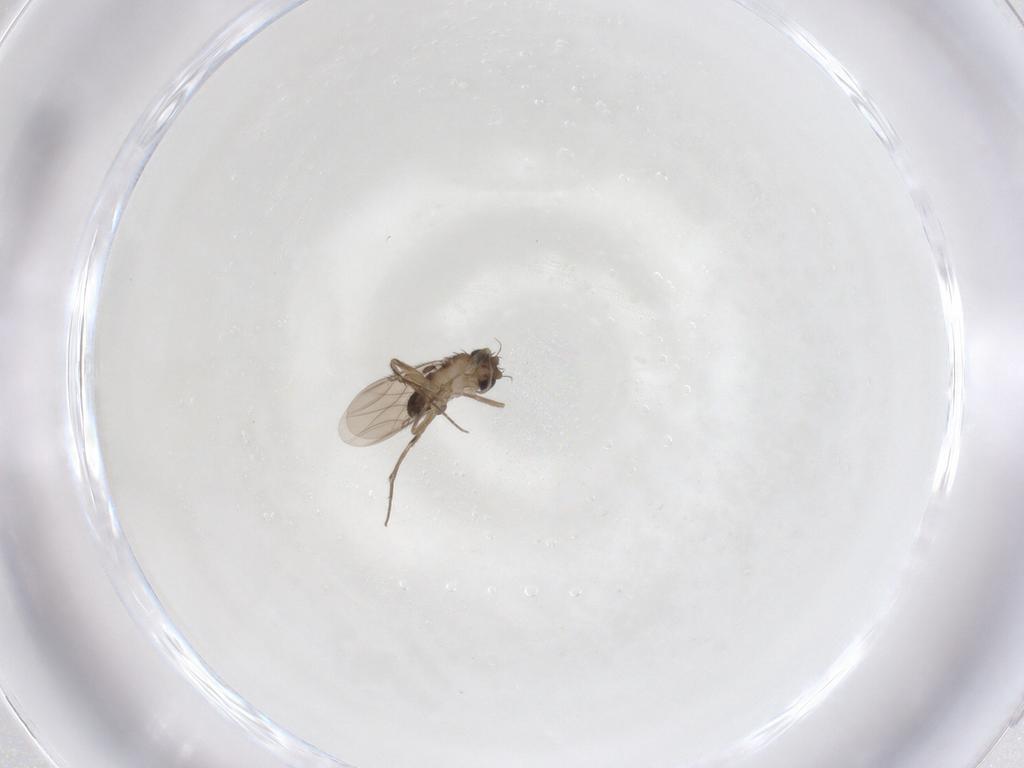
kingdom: Animalia
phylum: Arthropoda
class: Insecta
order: Diptera
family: Phoridae
